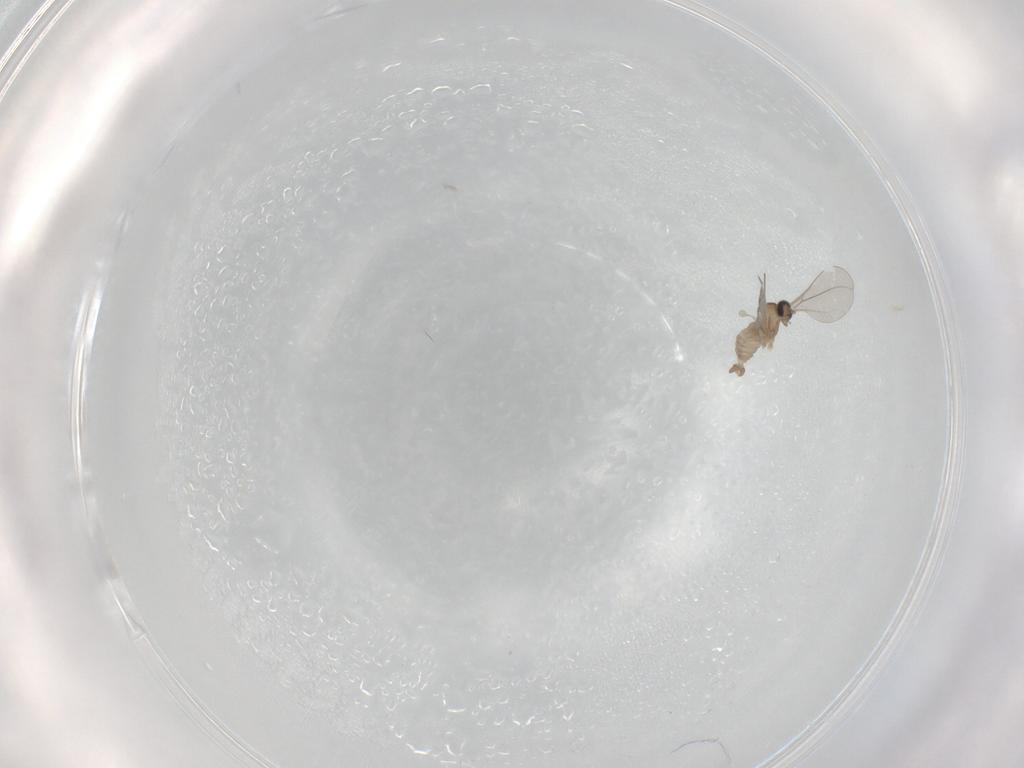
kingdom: Animalia
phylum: Arthropoda
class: Insecta
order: Diptera
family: Cecidomyiidae
